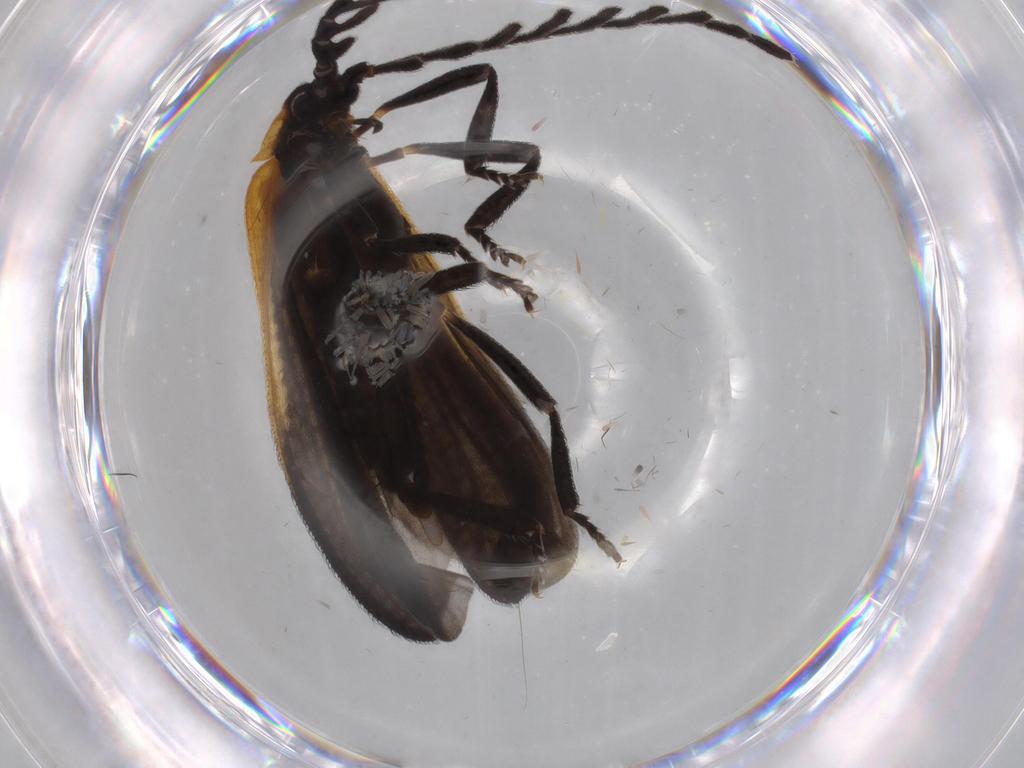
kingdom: Animalia
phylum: Arthropoda
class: Insecta
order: Coleoptera
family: Lycidae
